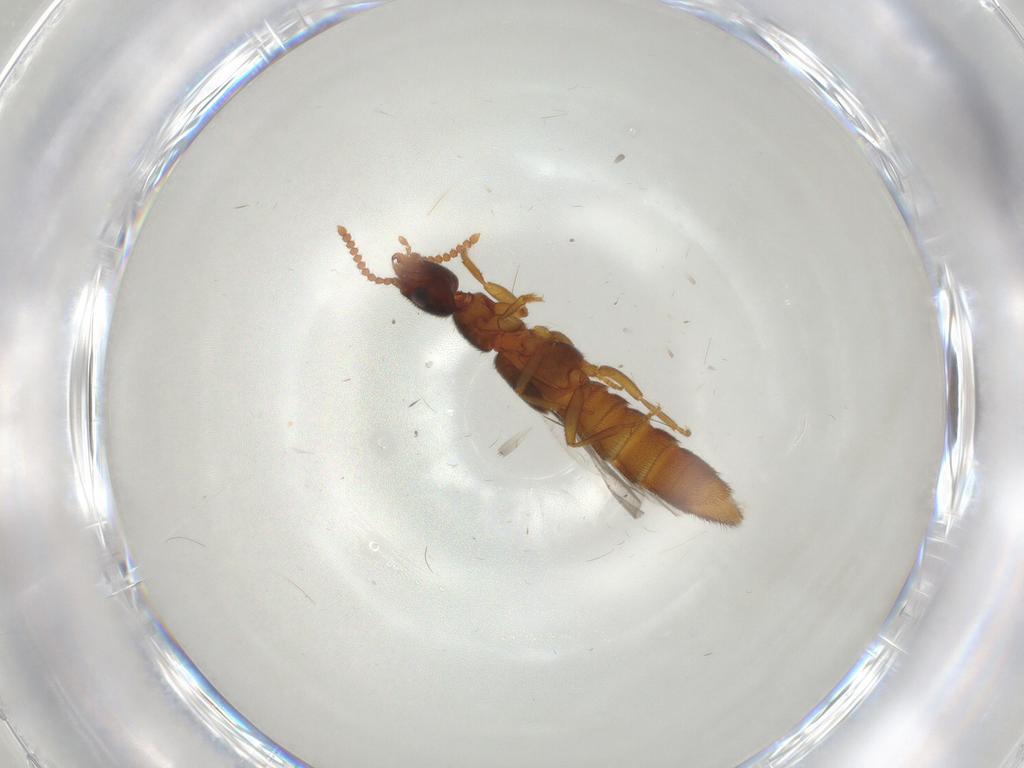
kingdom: Animalia
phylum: Arthropoda
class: Insecta
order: Coleoptera
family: Staphylinidae
